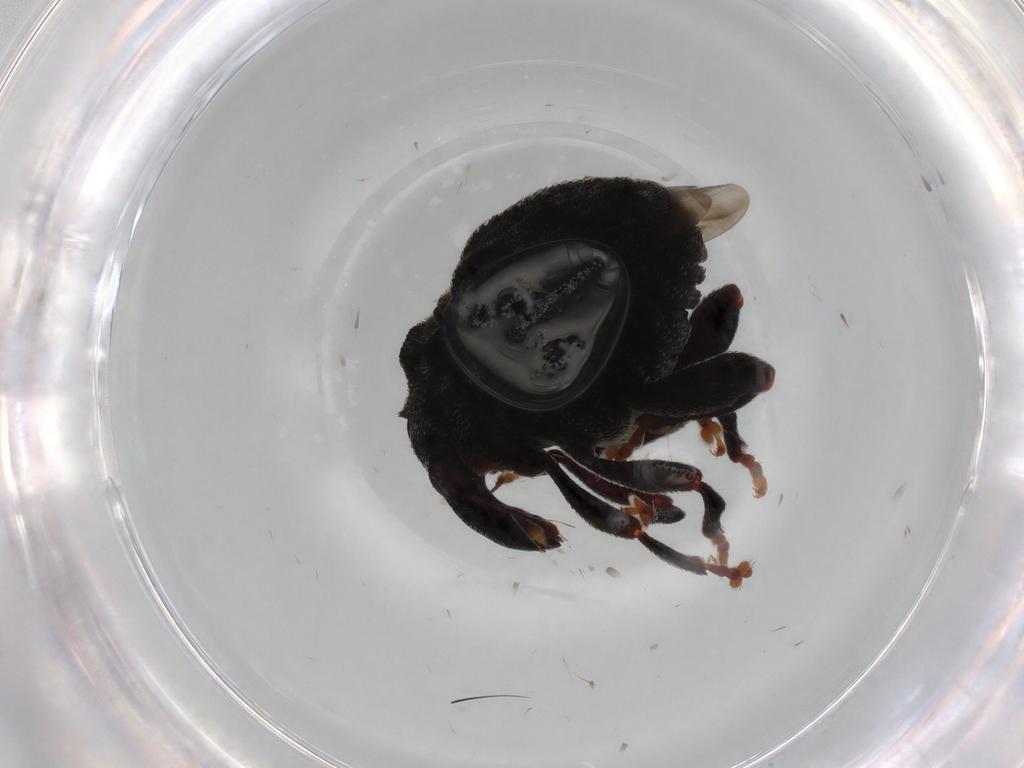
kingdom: Animalia
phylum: Arthropoda
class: Insecta
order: Coleoptera
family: Curculionidae
